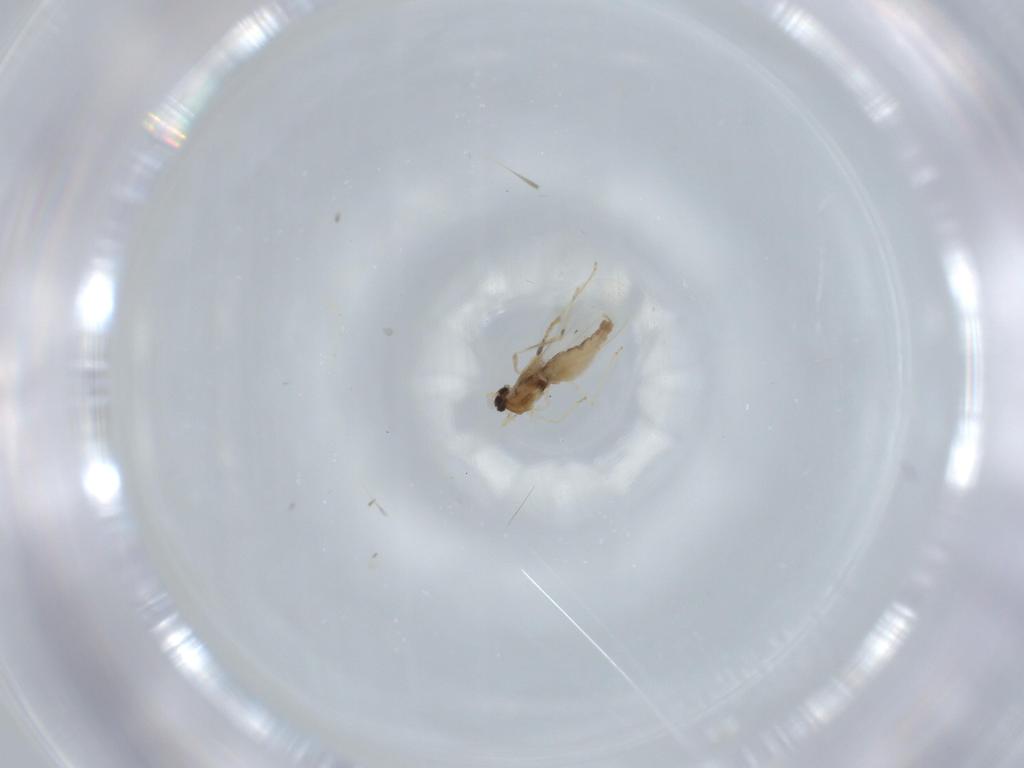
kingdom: Animalia
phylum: Arthropoda
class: Insecta
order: Diptera
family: Cecidomyiidae
